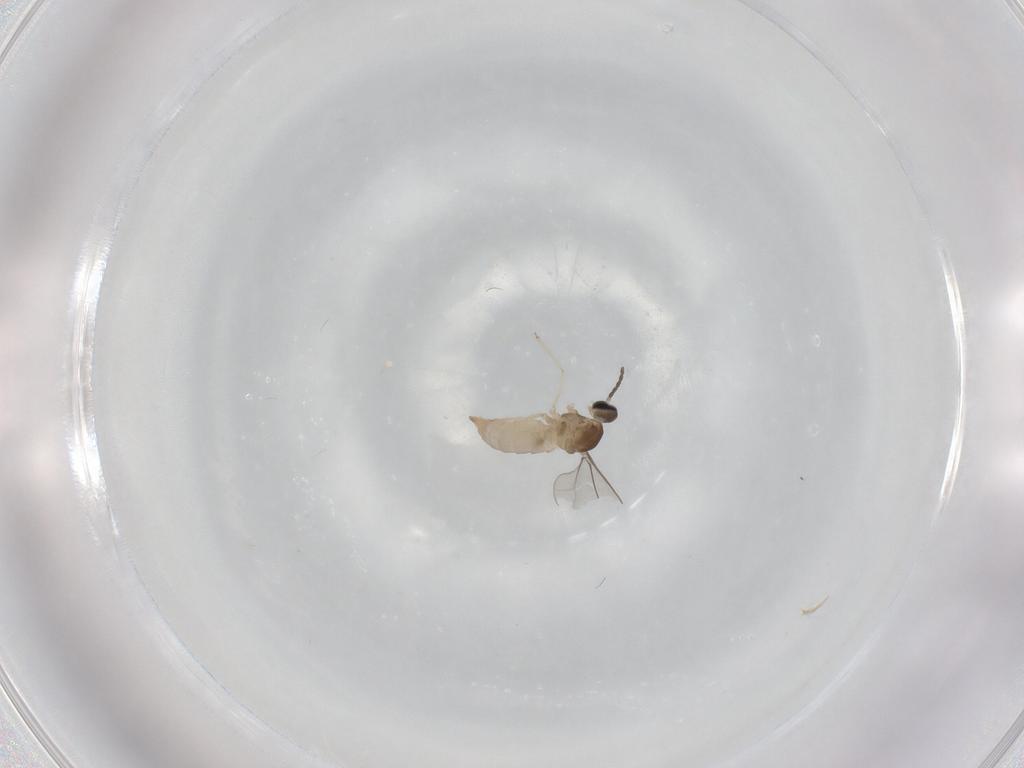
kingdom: Animalia
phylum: Arthropoda
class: Insecta
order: Diptera
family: Cecidomyiidae
